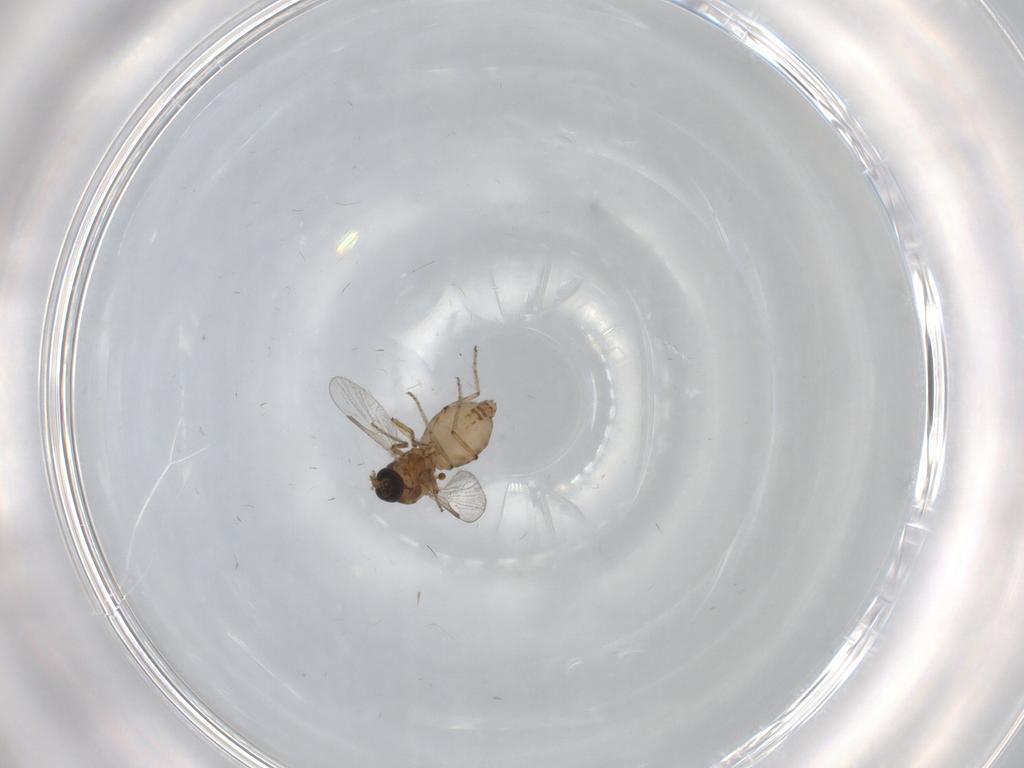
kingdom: Animalia
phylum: Arthropoda
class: Insecta
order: Diptera
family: Ceratopogonidae
